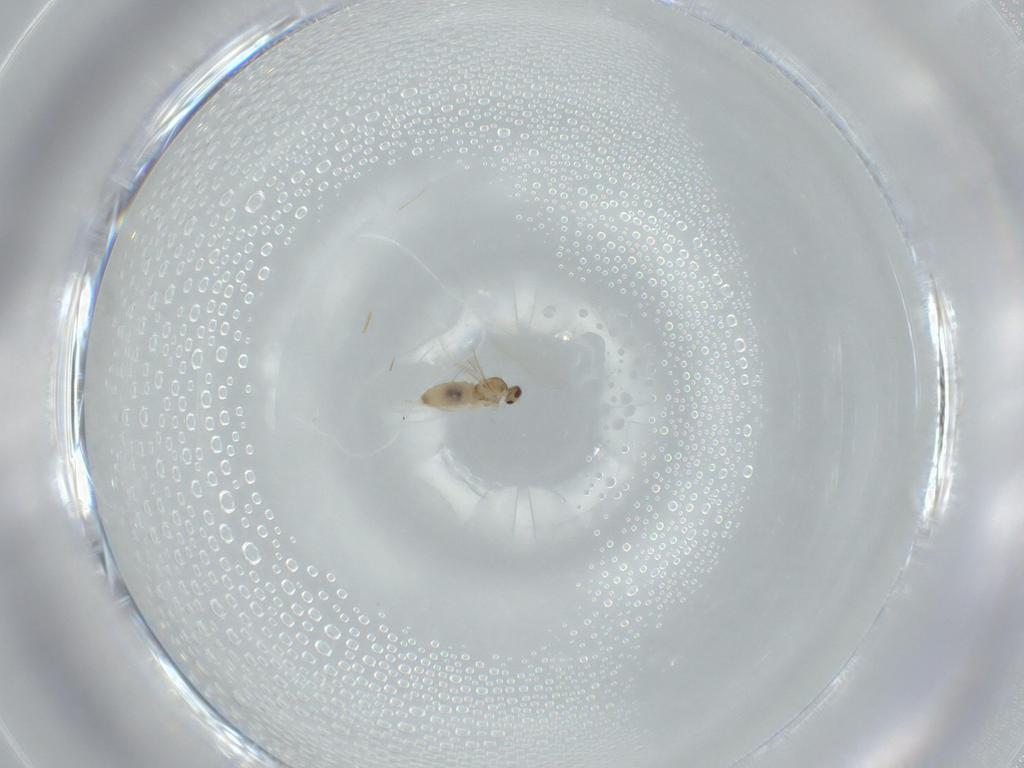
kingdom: Animalia
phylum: Arthropoda
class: Insecta
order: Diptera
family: Cecidomyiidae
